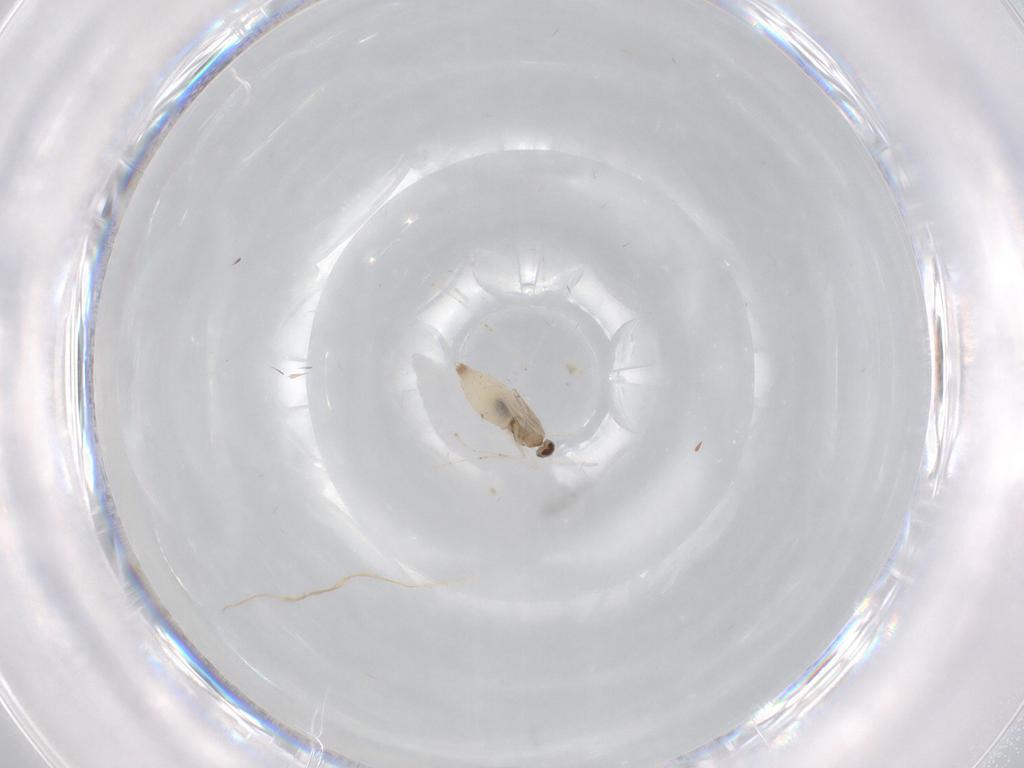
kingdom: Animalia
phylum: Arthropoda
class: Insecta
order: Diptera
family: Cecidomyiidae
